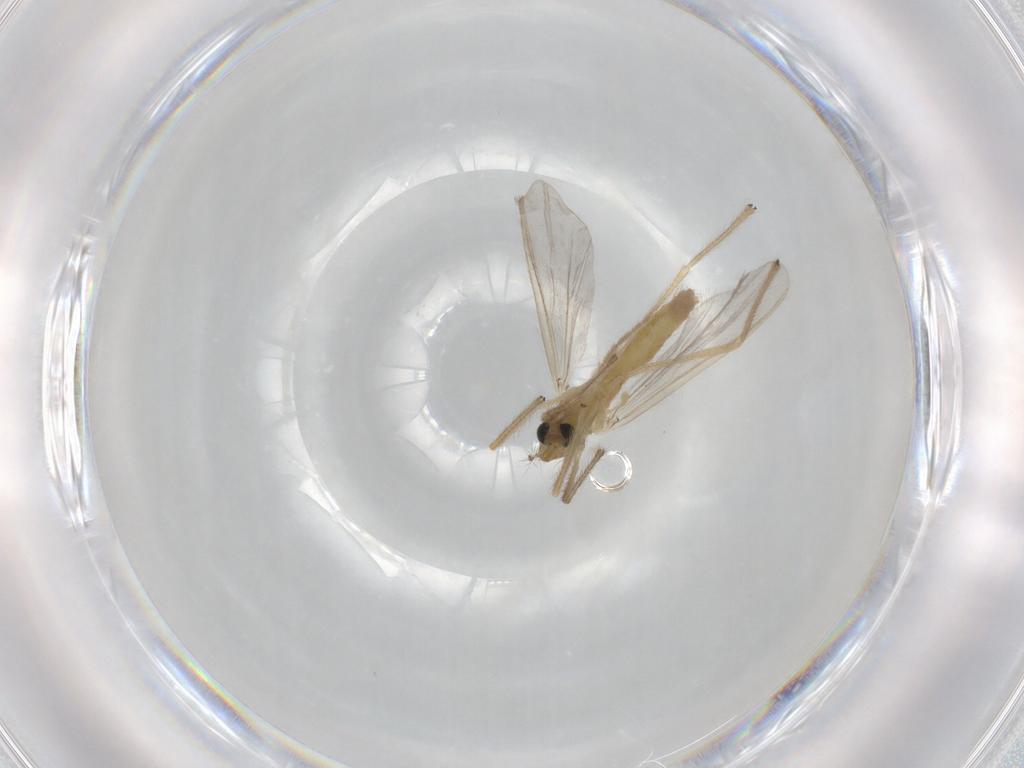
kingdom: Animalia
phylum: Arthropoda
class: Insecta
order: Diptera
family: Chironomidae
